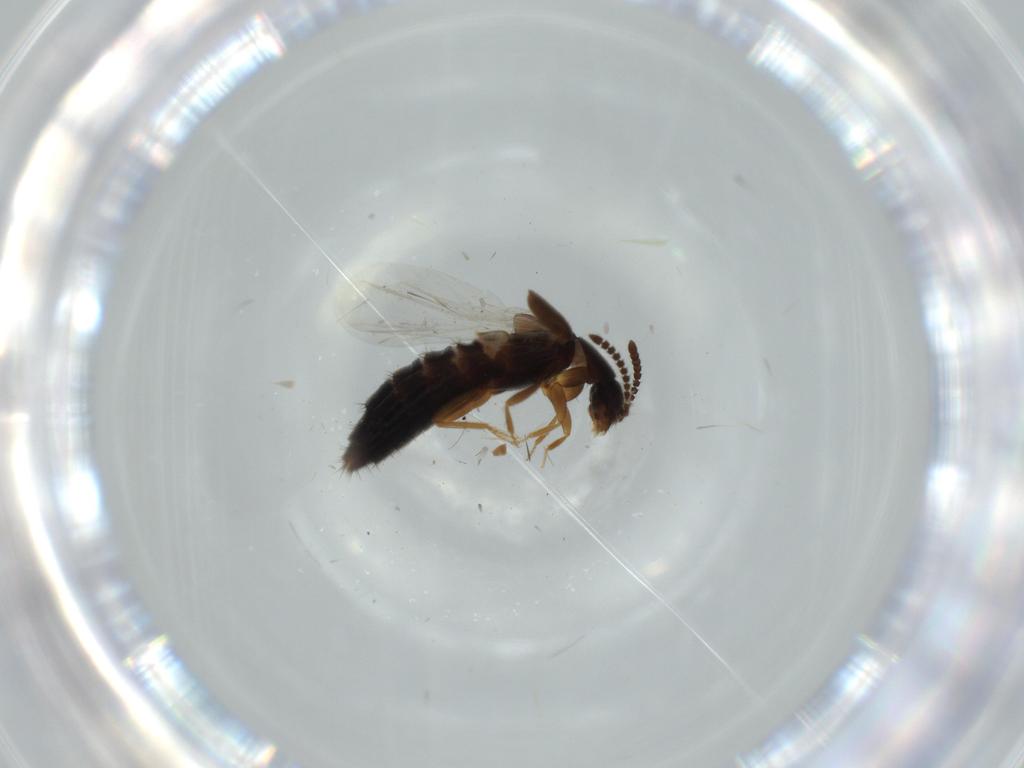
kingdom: Animalia
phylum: Arthropoda
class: Insecta
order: Coleoptera
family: Chrysomelidae
